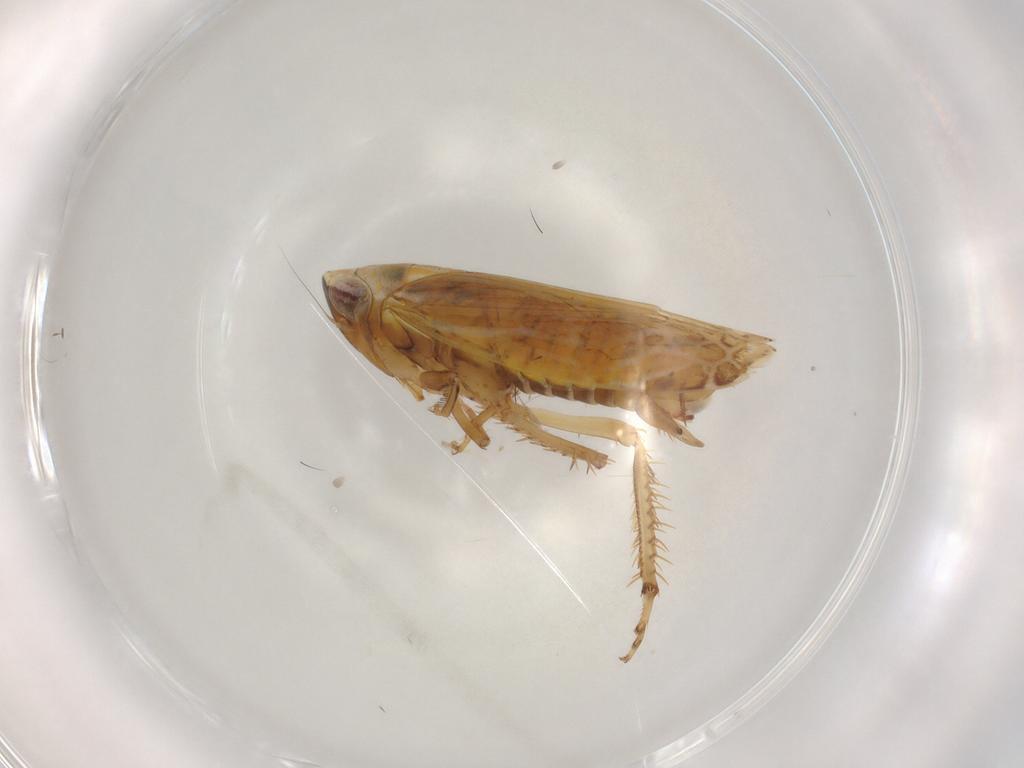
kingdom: Animalia
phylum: Arthropoda
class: Insecta
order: Hemiptera
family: Cicadellidae
